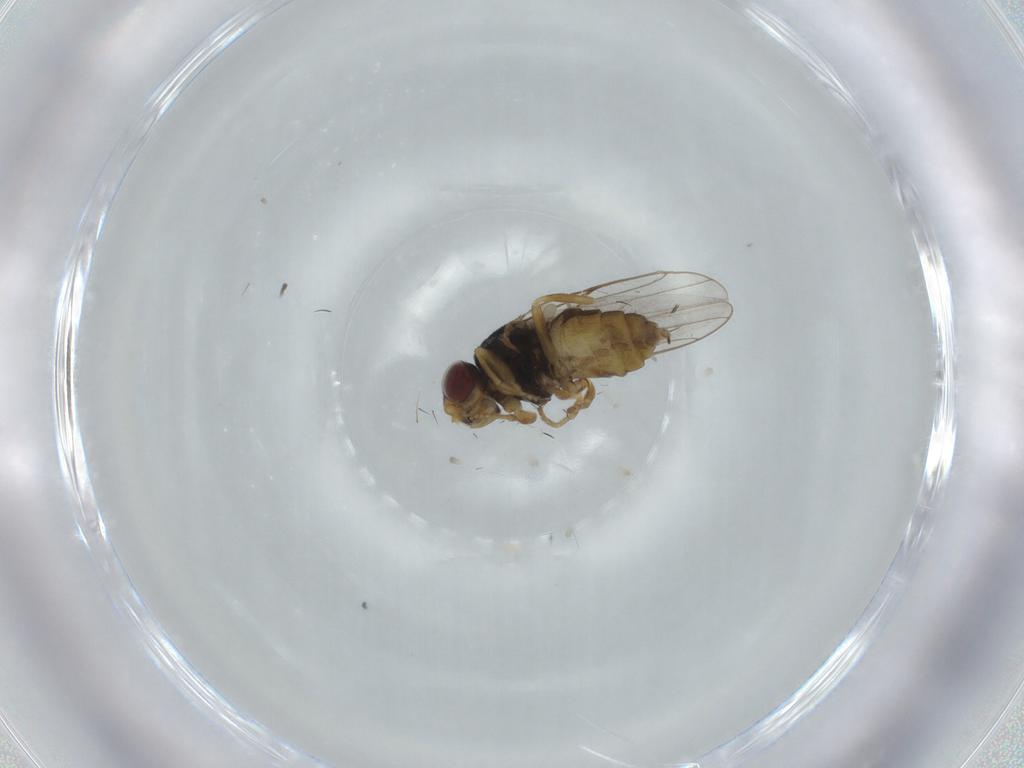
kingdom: Animalia
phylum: Arthropoda
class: Insecta
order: Diptera
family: Chloropidae
